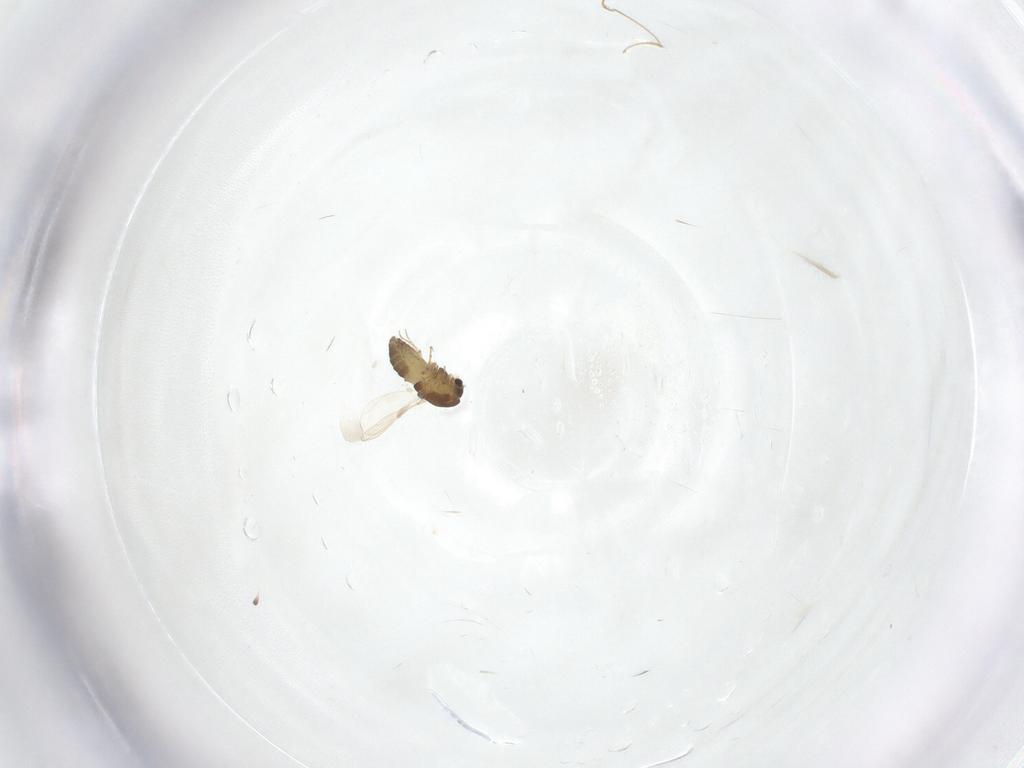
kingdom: Animalia
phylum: Arthropoda
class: Insecta
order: Diptera
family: Chironomidae
